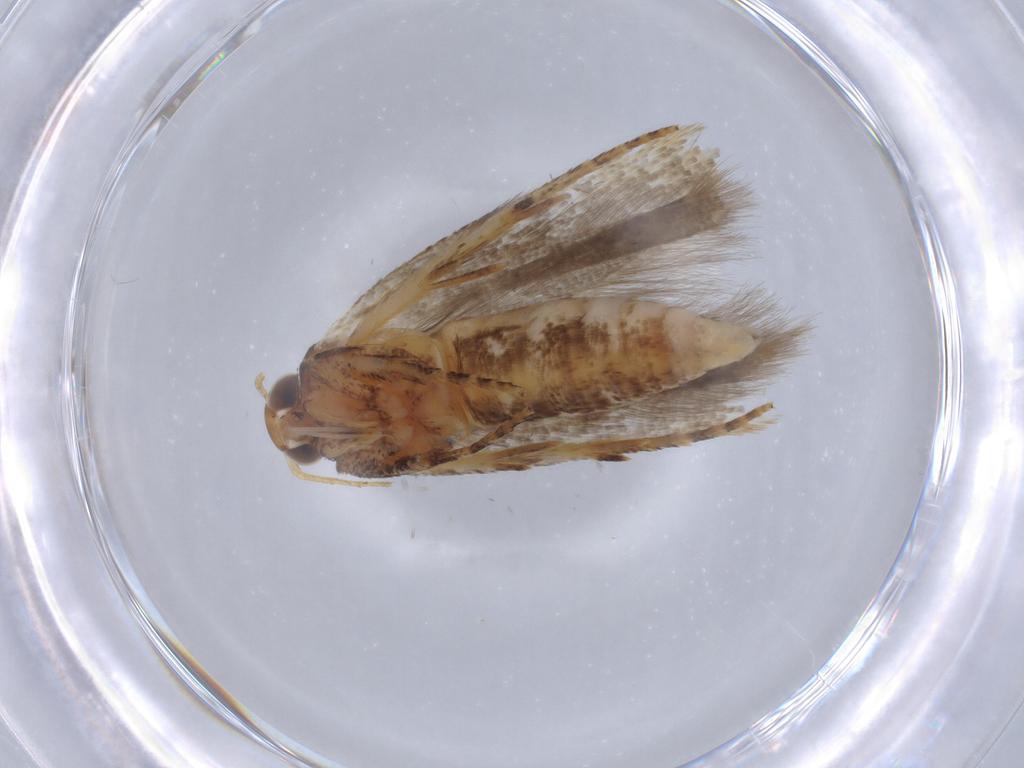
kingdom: Animalia
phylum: Arthropoda
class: Insecta
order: Lepidoptera
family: Gelechiidae
